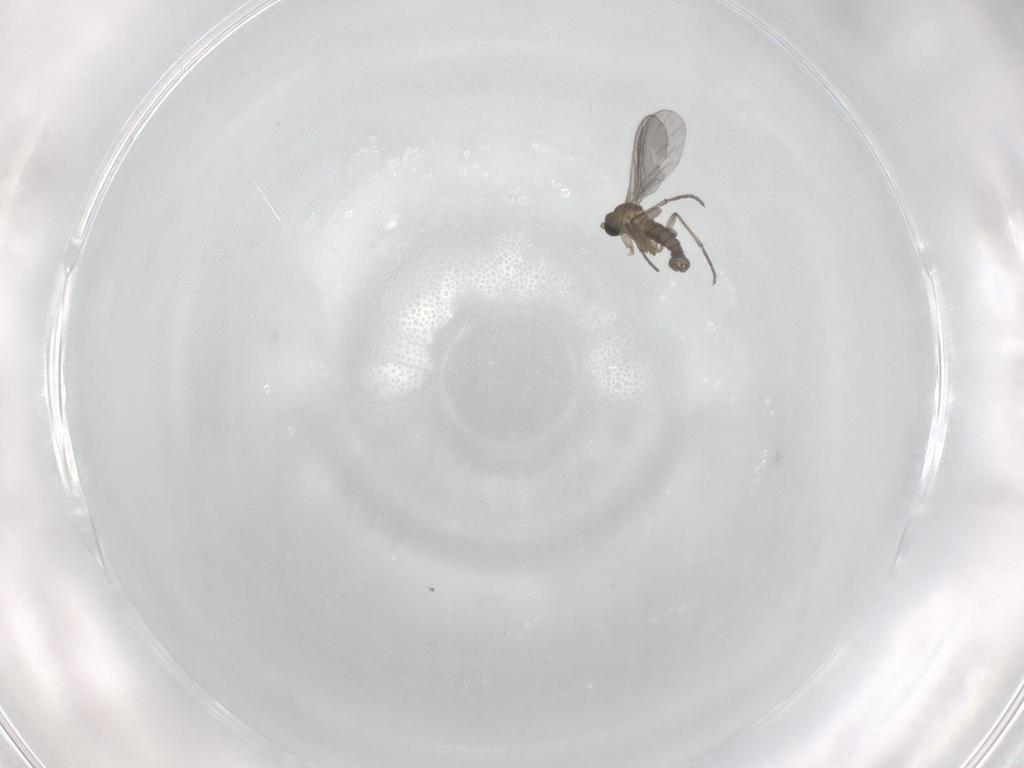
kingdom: Animalia
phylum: Arthropoda
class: Insecta
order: Diptera
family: Sciaridae
